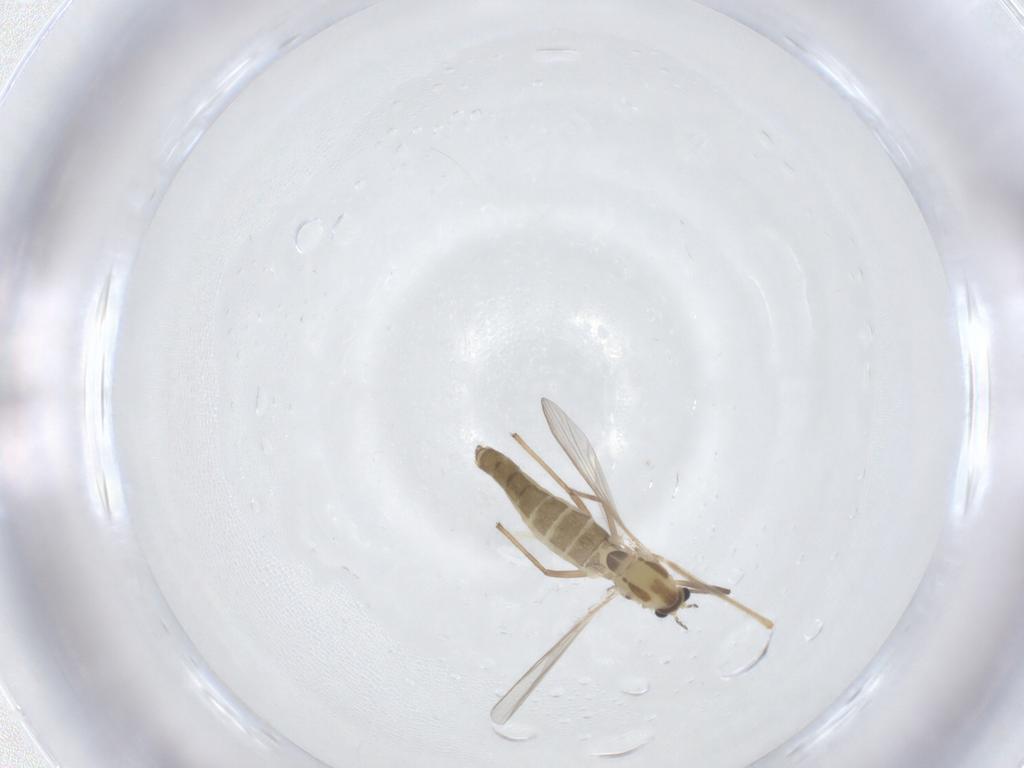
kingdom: Animalia
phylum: Arthropoda
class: Insecta
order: Diptera
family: Chironomidae
